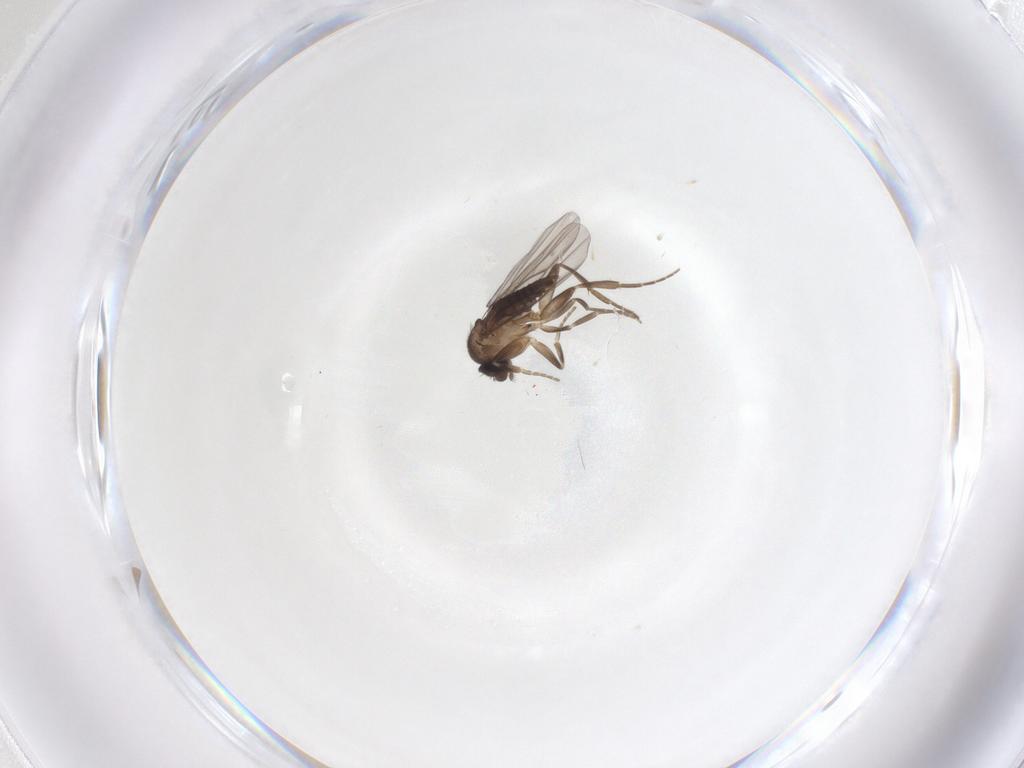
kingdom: Animalia
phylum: Arthropoda
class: Insecta
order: Diptera
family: Phoridae
